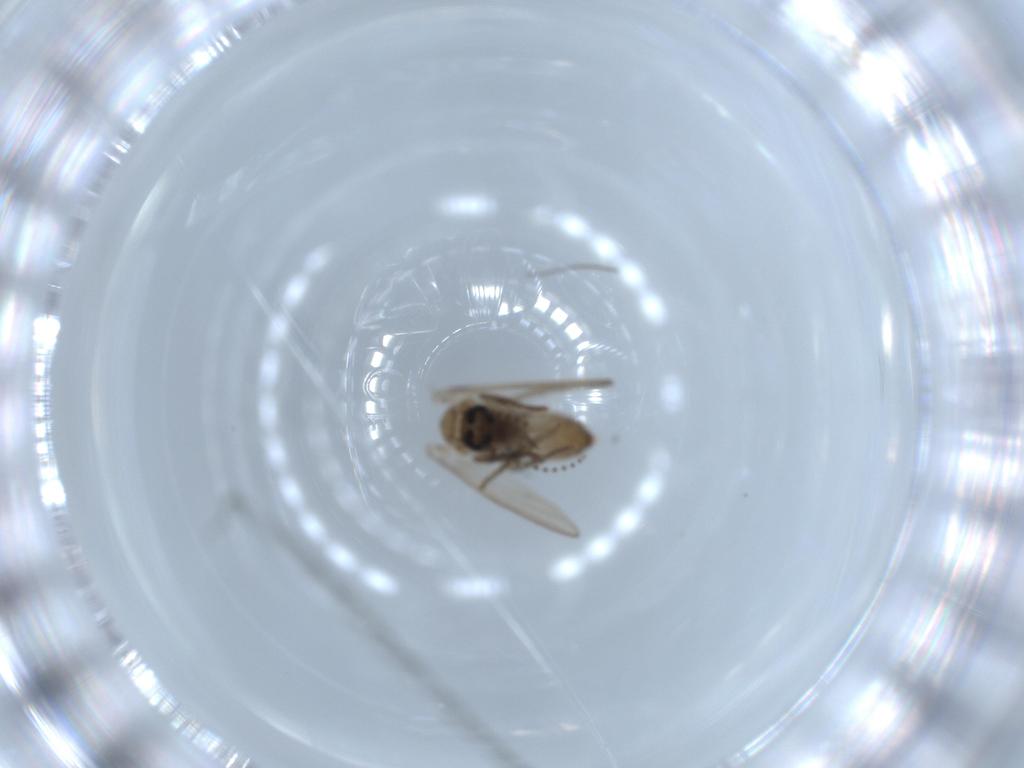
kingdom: Animalia
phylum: Arthropoda
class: Insecta
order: Diptera
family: Psychodidae
